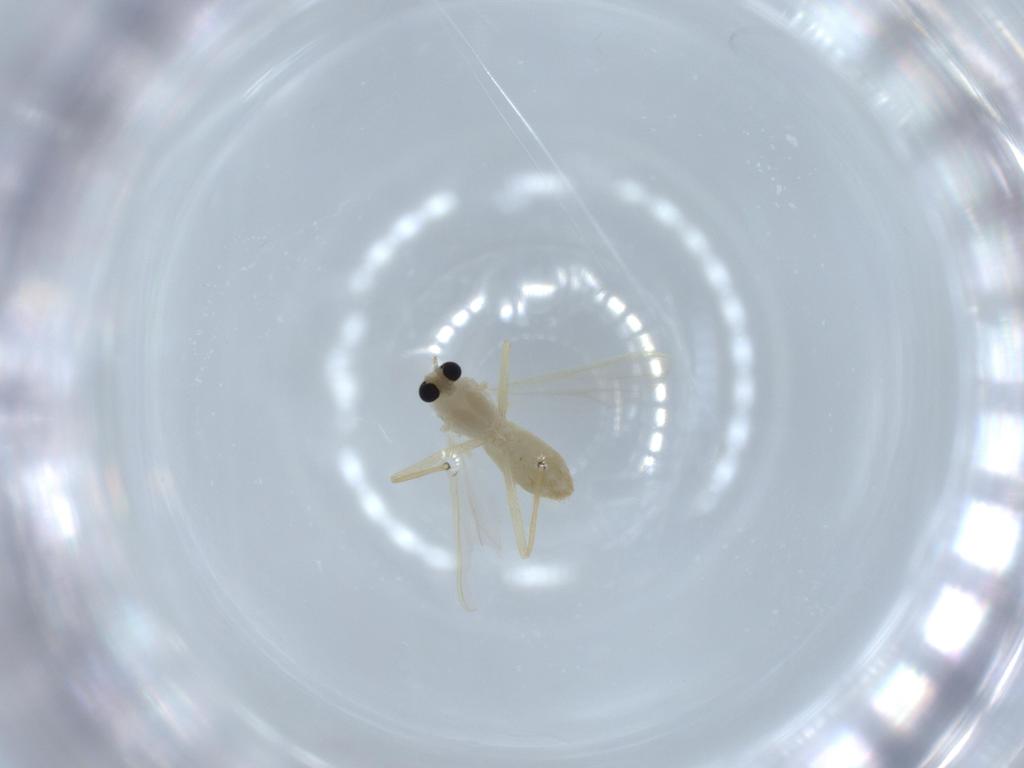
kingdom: Animalia
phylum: Arthropoda
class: Insecta
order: Diptera
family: Chironomidae
